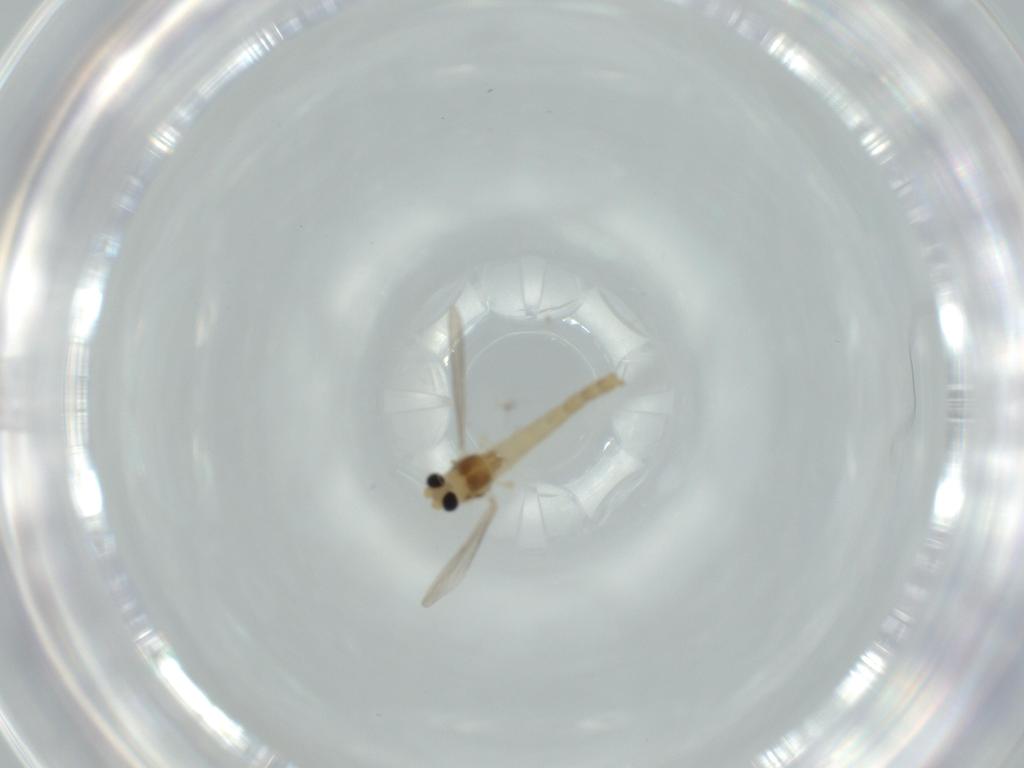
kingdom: Animalia
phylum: Arthropoda
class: Insecta
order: Diptera
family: Chironomidae
